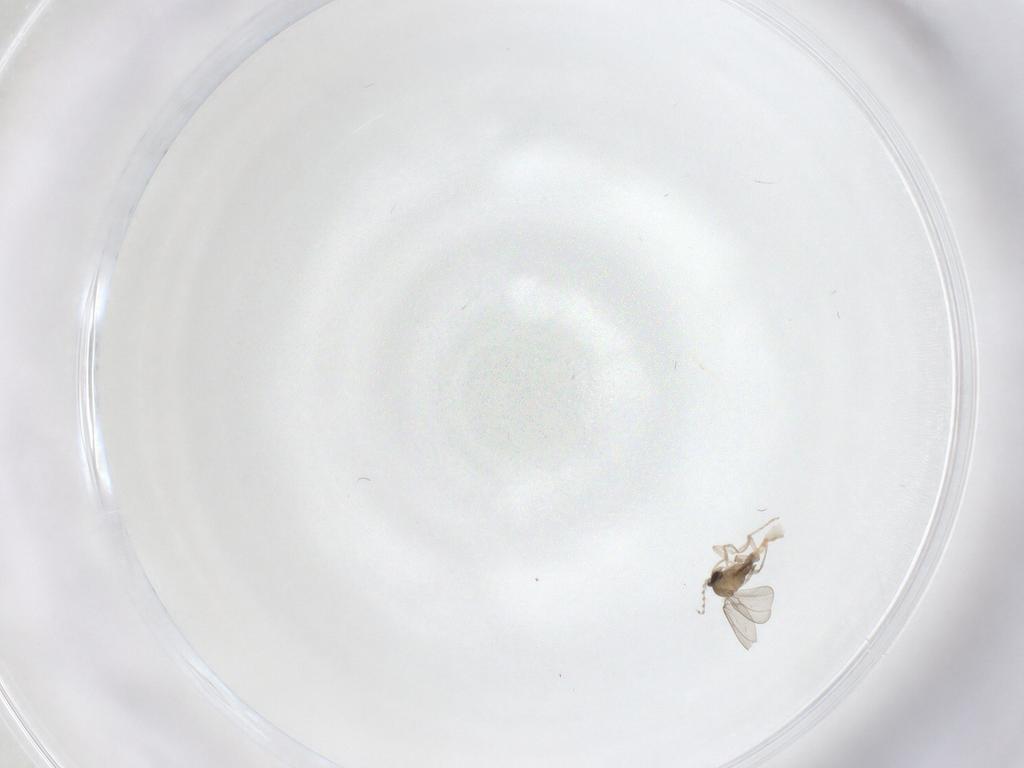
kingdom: Animalia
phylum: Arthropoda
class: Insecta
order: Diptera
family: Cecidomyiidae
